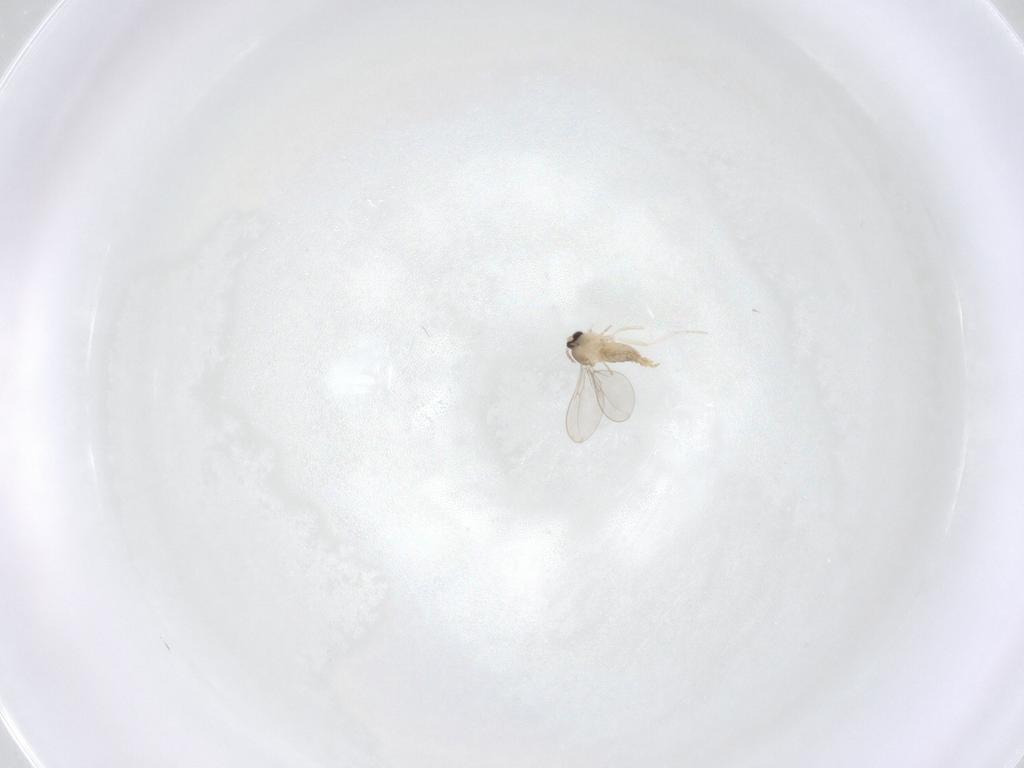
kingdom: Animalia
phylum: Arthropoda
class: Insecta
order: Diptera
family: Cecidomyiidae
